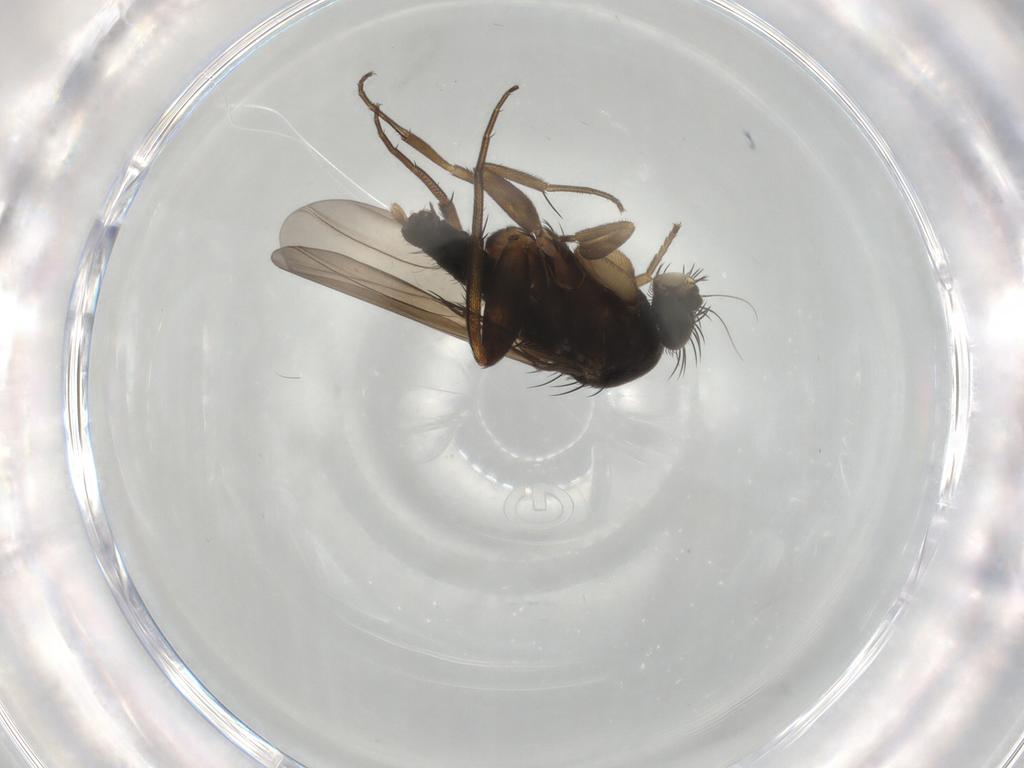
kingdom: Animalia
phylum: Arthropoda
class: Insecta
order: Diptera
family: Phoridae
